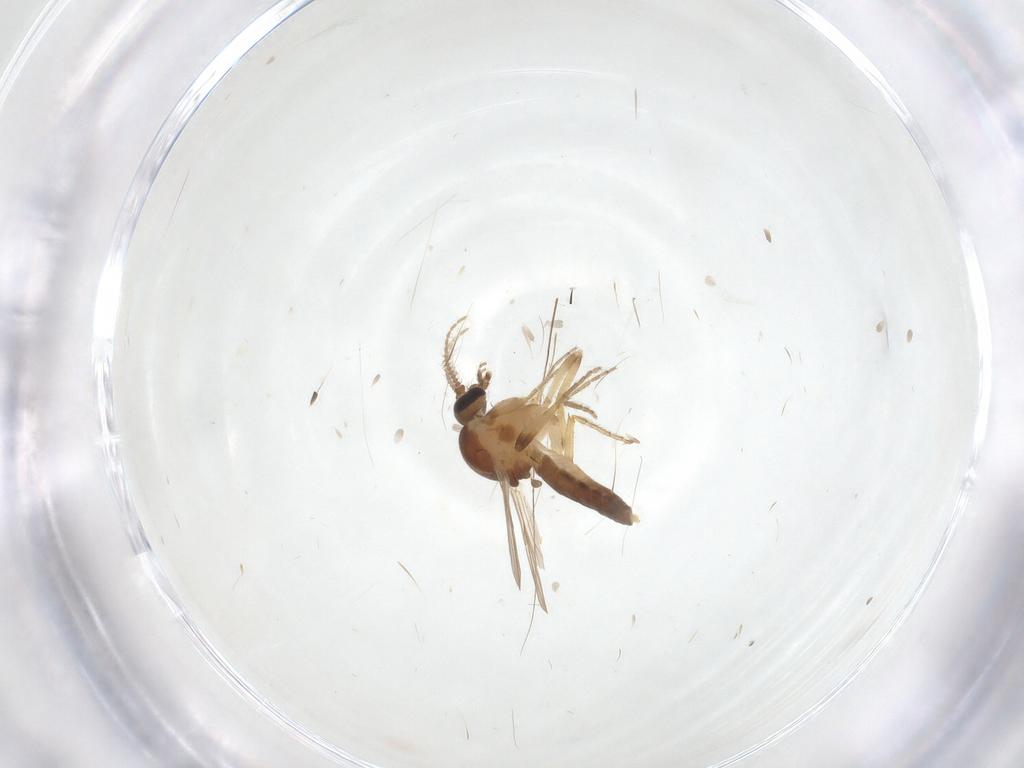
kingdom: Animalia
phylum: Arthropoda
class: Insecta
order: Diptera
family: Ceratopogonidae
